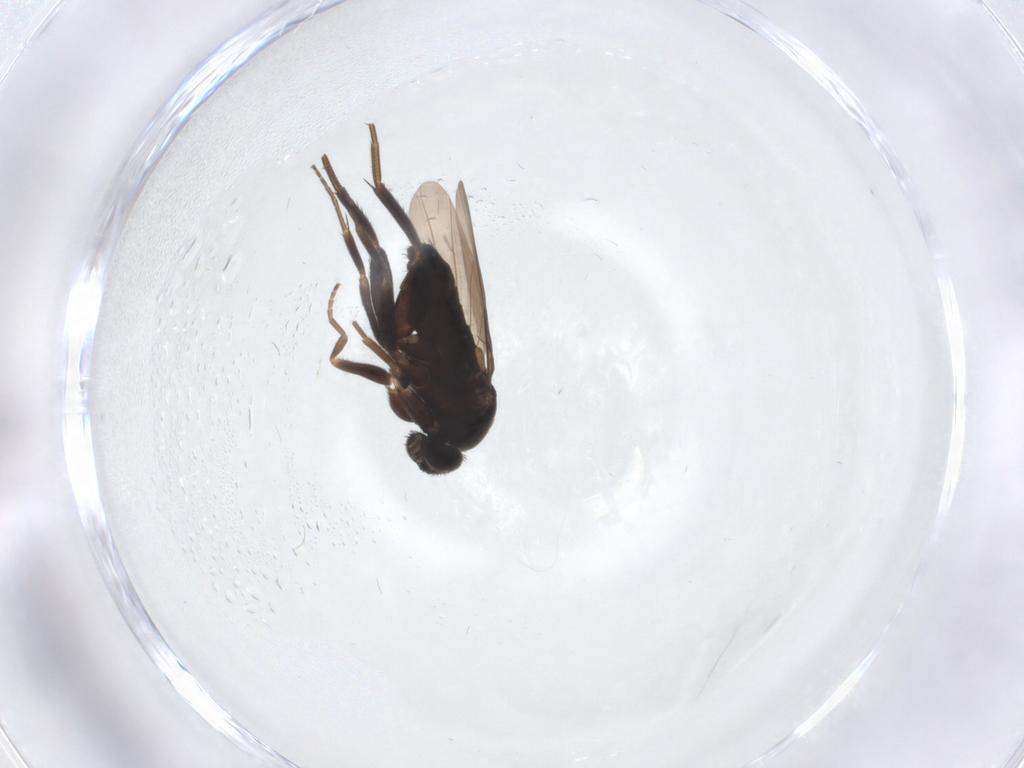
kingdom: Animalia
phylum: Arthropoda
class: Insecta
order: Diptera
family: Phoridae
